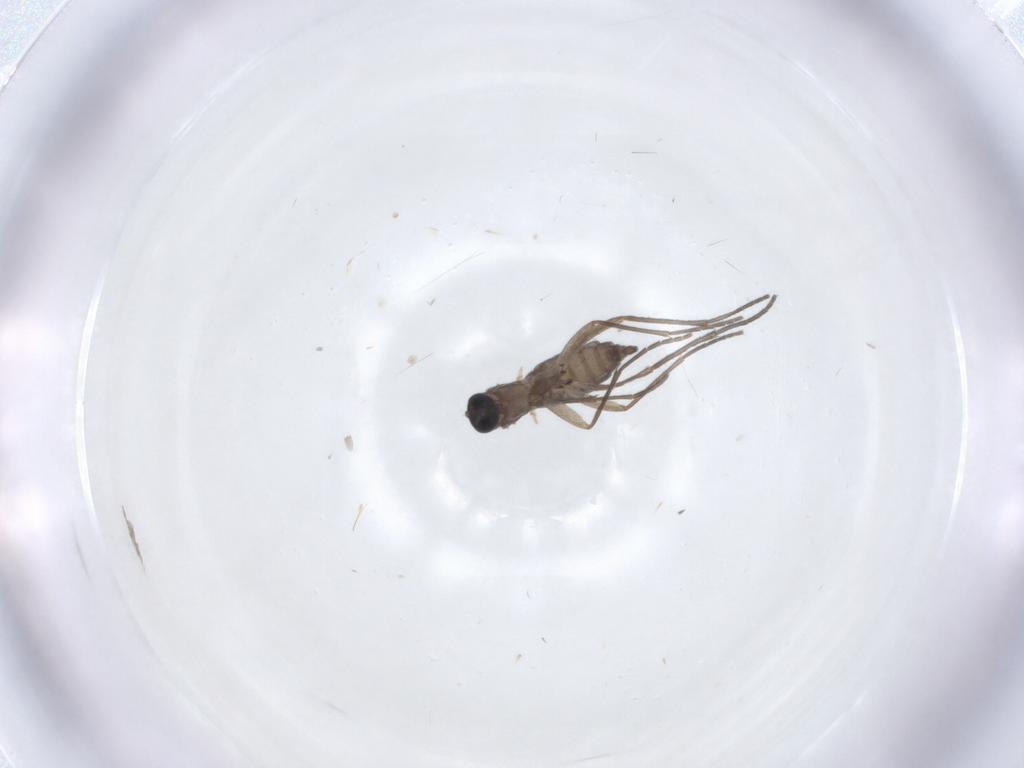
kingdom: Animalia
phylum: Arthropoda
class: Insecta
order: Diptera
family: Sciaridae
